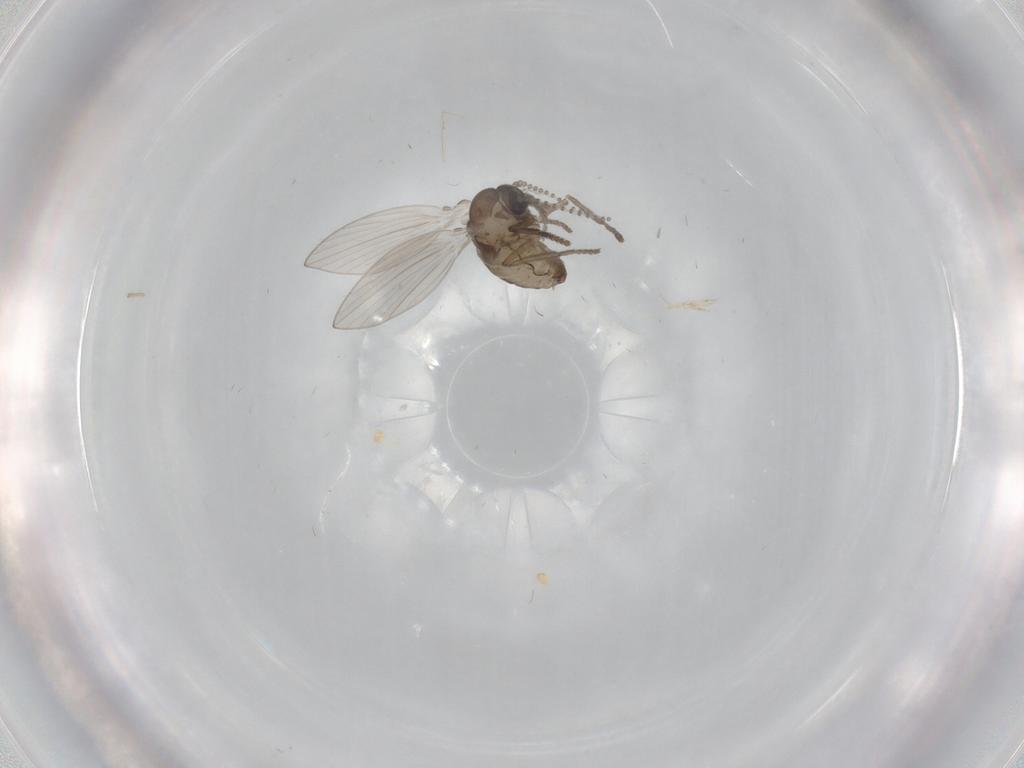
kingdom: Animalia
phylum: Arthropoda
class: Insecta
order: Diptera
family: Psychodidae
